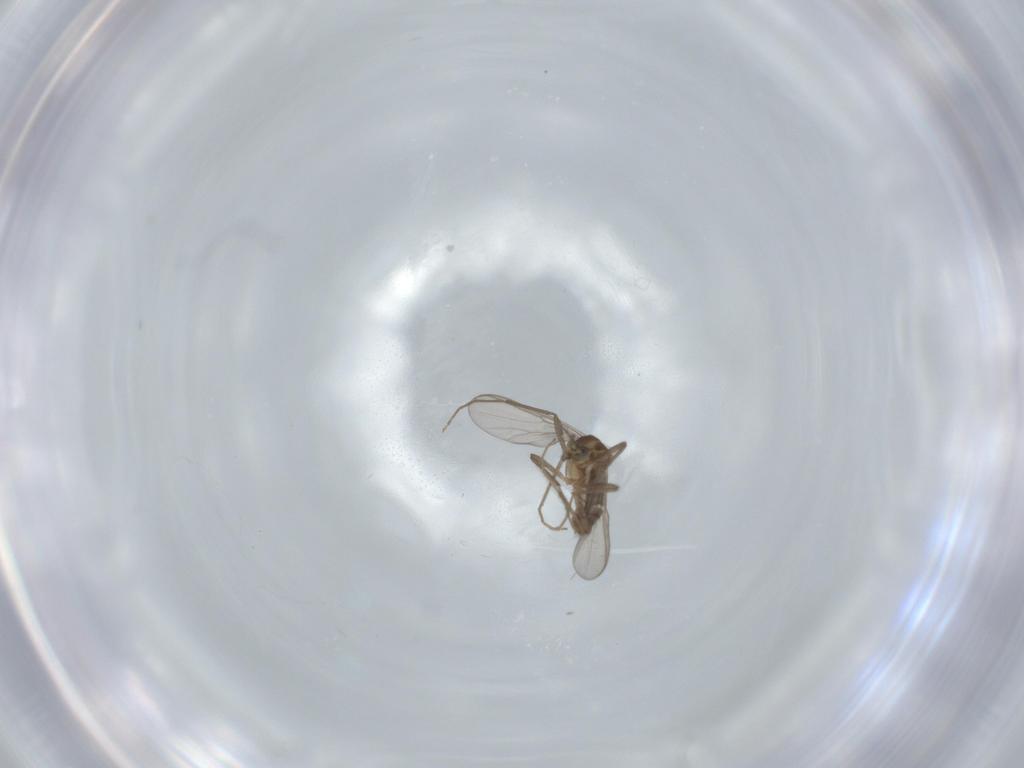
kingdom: Animalia
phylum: Arthropoda
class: Insecta
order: Diptera
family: Chironomidae
